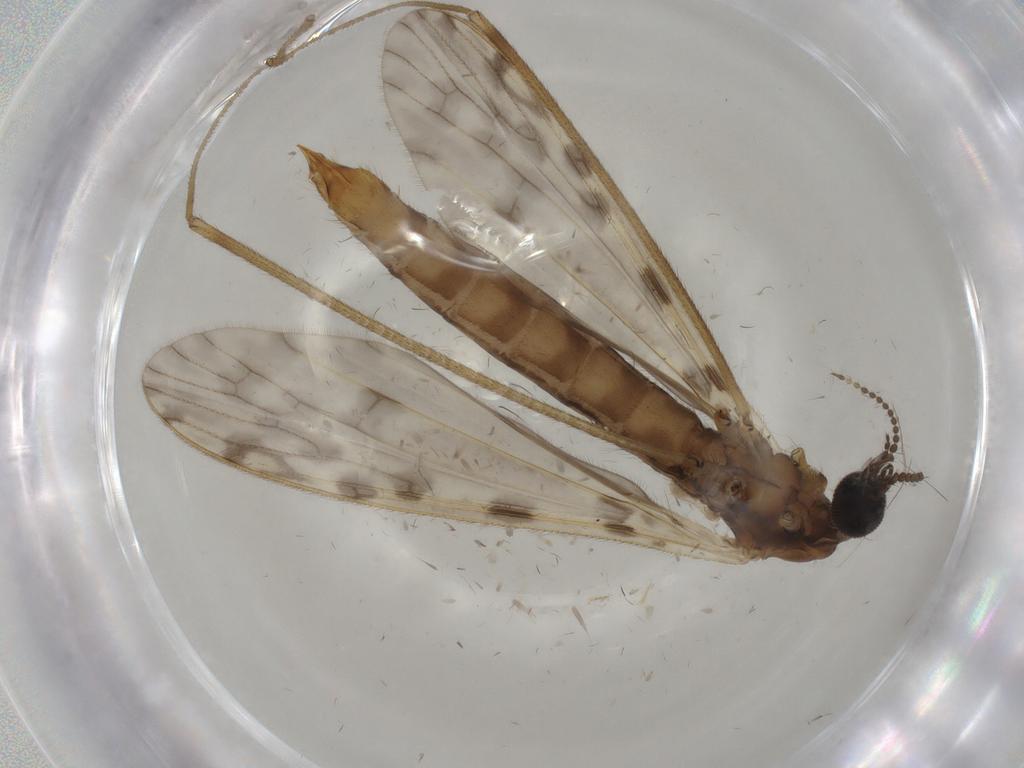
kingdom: Animalia
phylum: Arthropoda
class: Insecta
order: Diptera
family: Sciaridae
